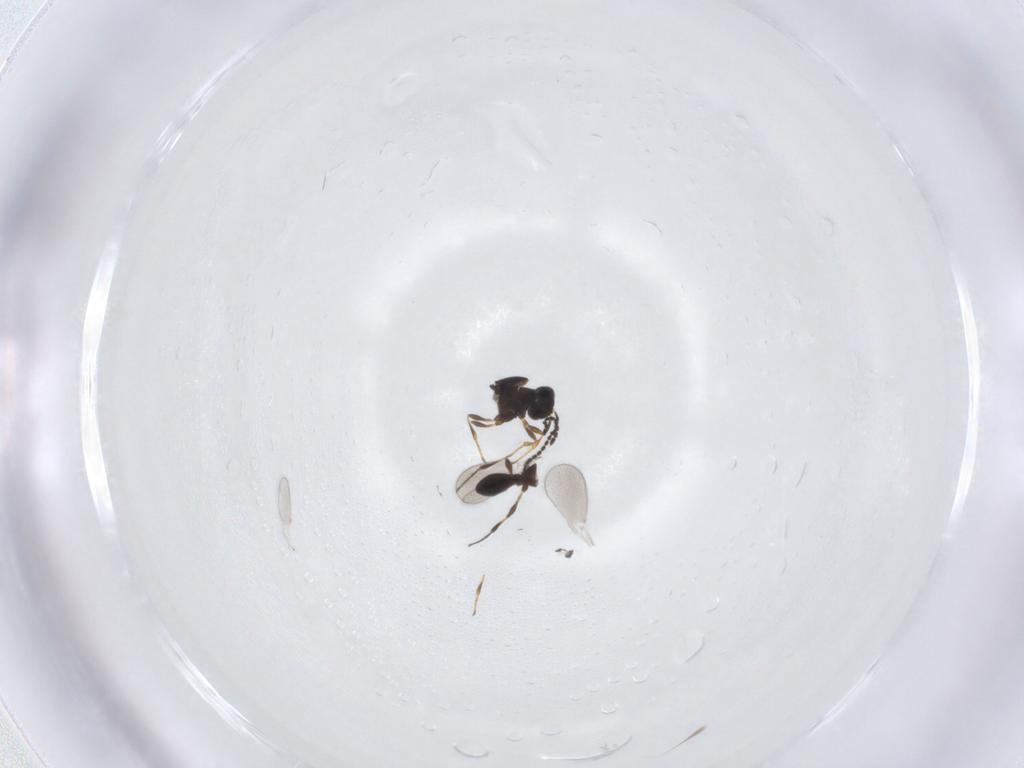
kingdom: Animalia
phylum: Arthropoda
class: Insecta
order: Hymenoptera
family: Platygastridae
